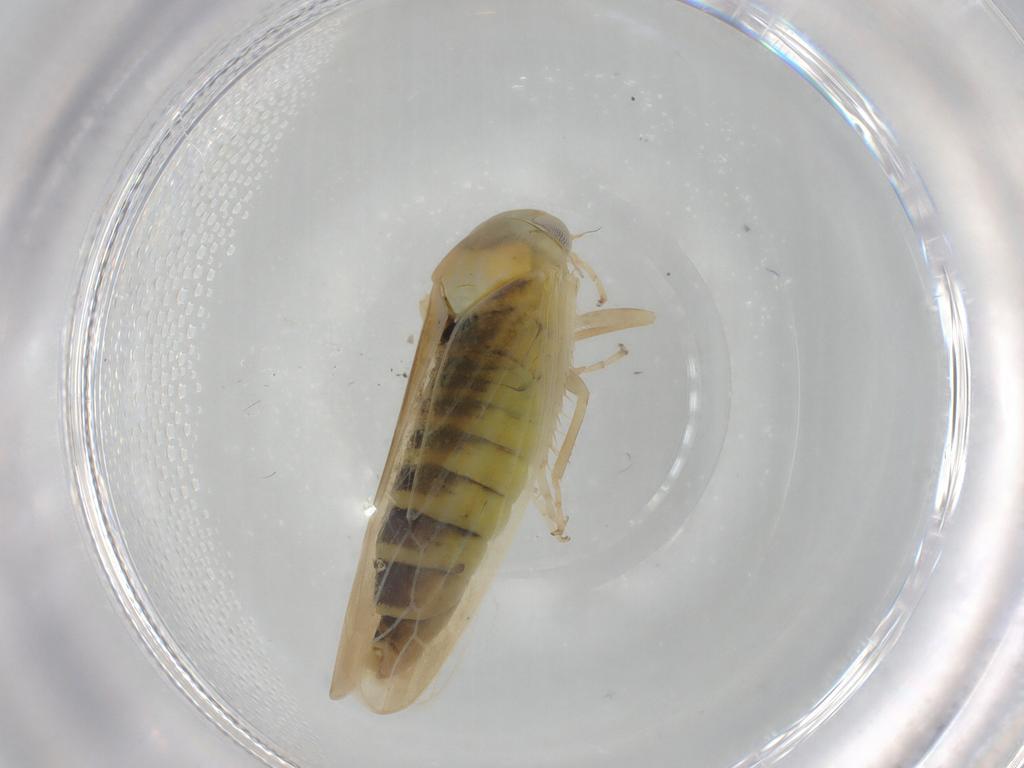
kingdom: Animalia
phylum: Arthropoda
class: Insecta
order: Hemiptera
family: Cicadellidae
